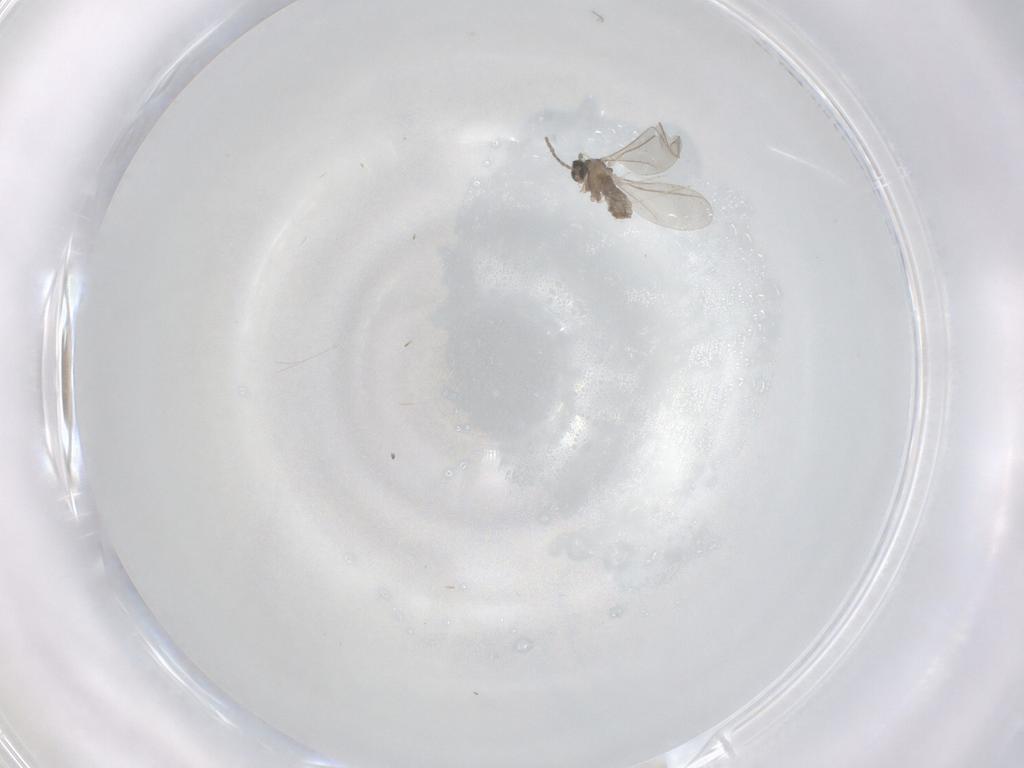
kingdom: Animalia
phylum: Arthropoda
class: Insecta
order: Diptera
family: Cecidomyiidae
